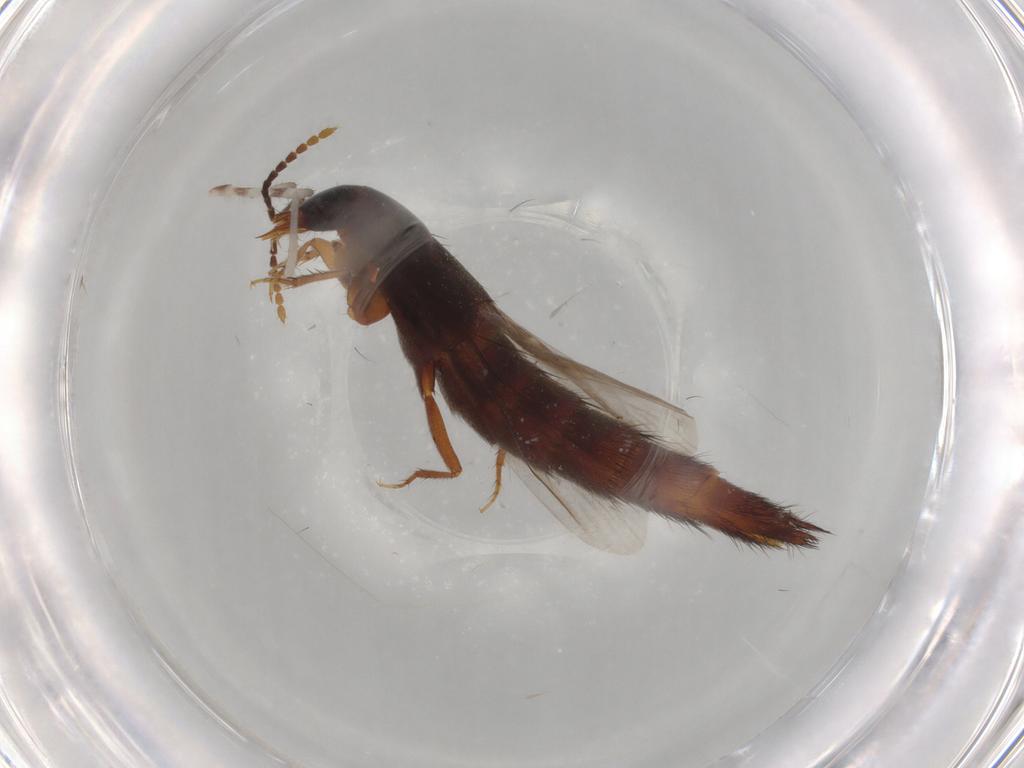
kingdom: Animalia
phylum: Arthropoda
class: Insecta
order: Coleoptera
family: Staphylinidae
